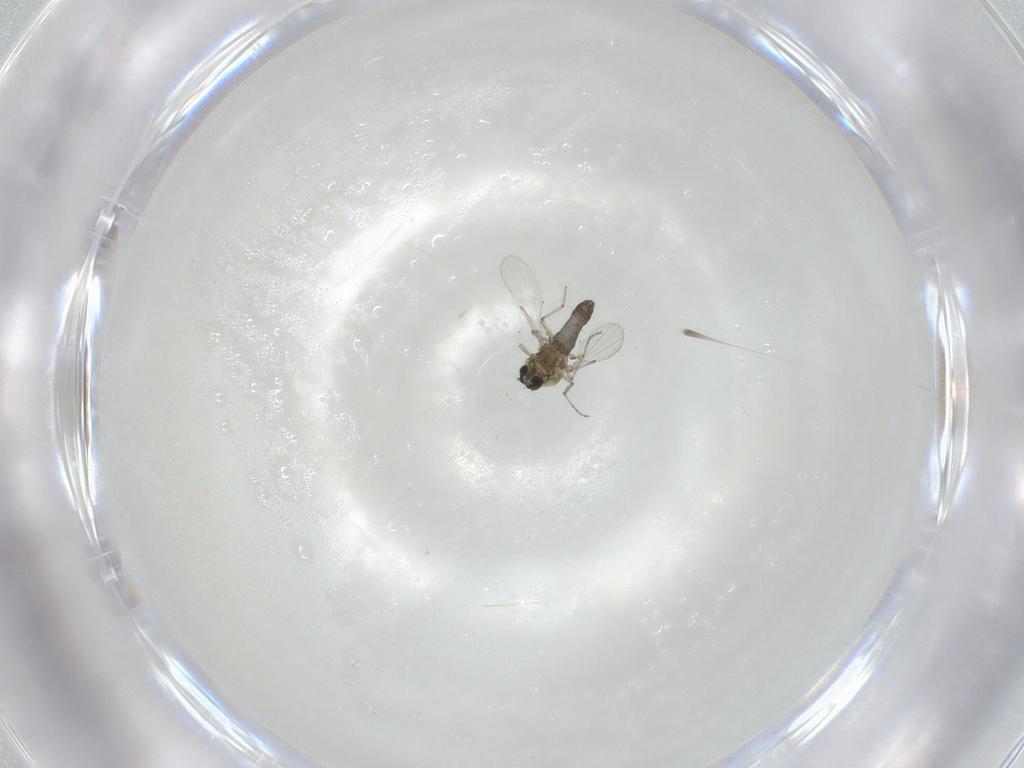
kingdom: Animalia
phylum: Arthropoda
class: Insecta
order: Diptera
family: Ceratopogonidae
